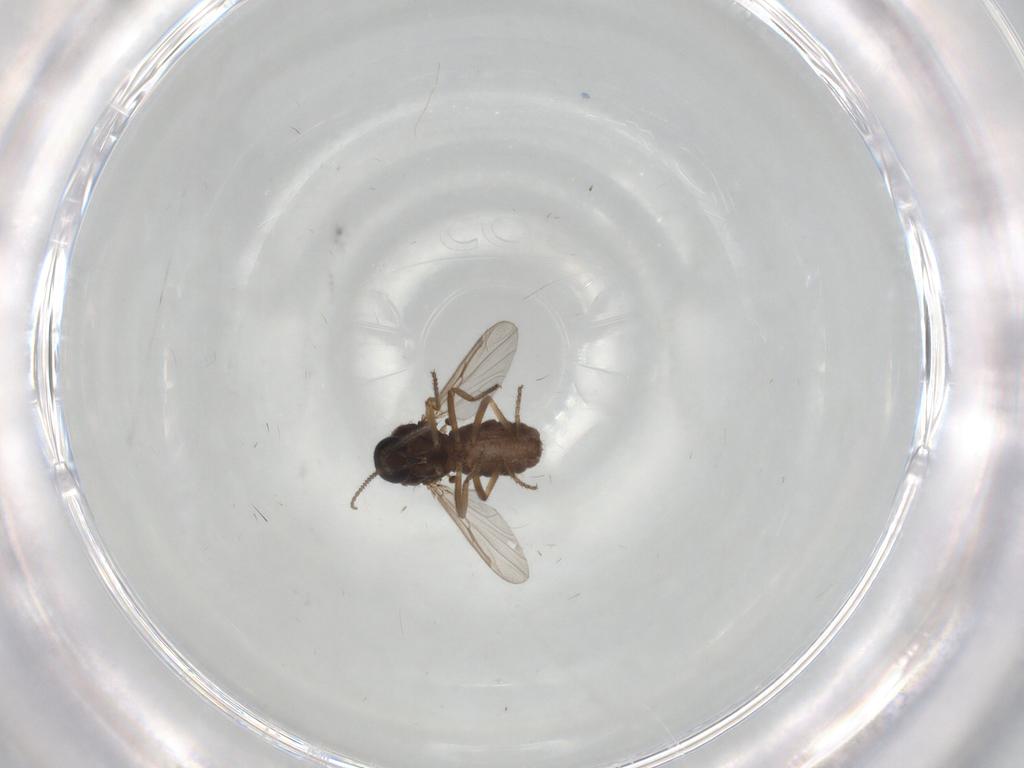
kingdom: Animalia
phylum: Arthropoda
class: Insecta
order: Diptera
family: Ceratopogonidae
